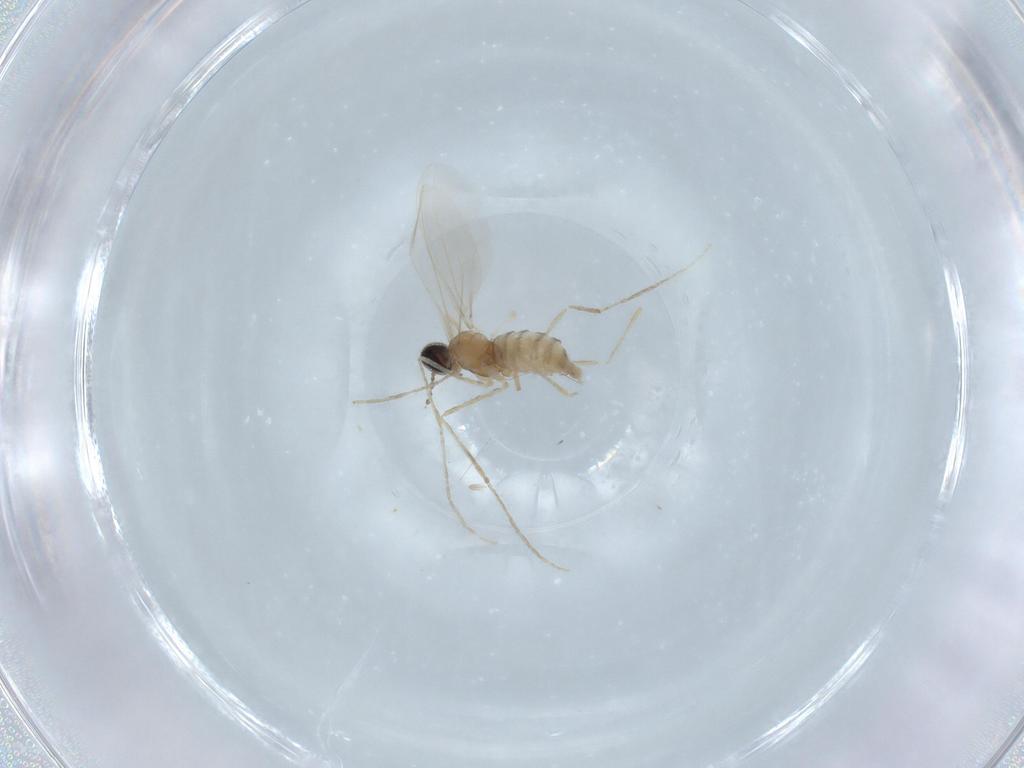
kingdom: Animalia
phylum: Arthropoda
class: Insecta
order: Diptera
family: Cecidomyiidae
